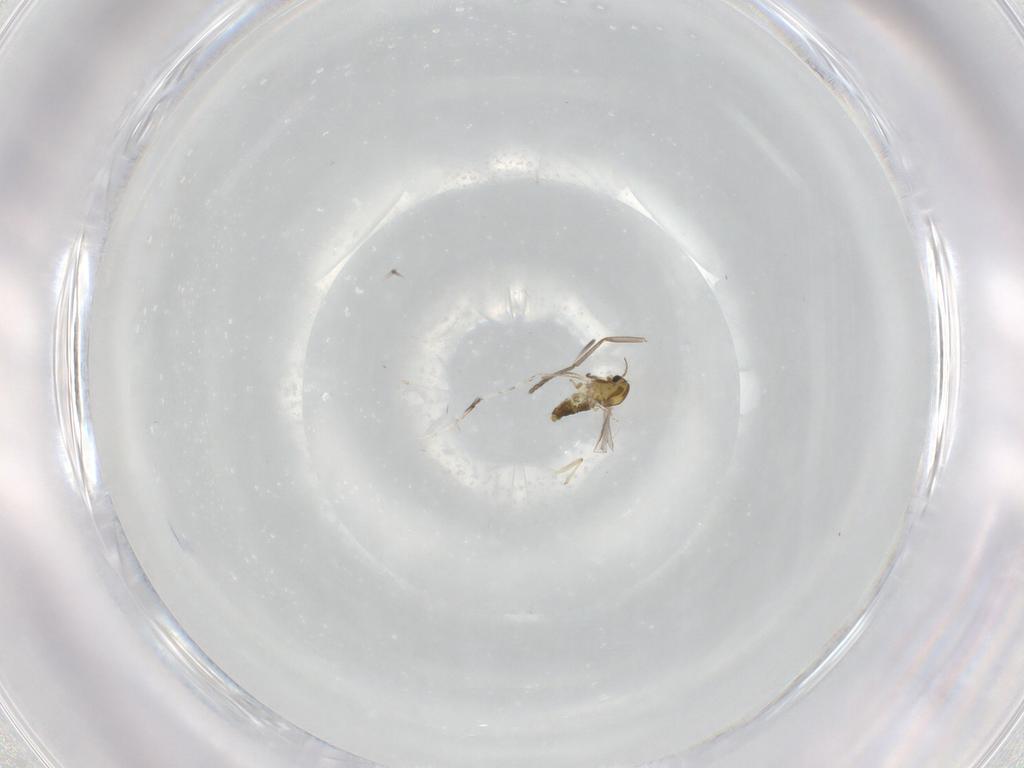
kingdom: Animalia
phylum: Arthropoda
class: Insecta
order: Diptera
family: Chironomidae
